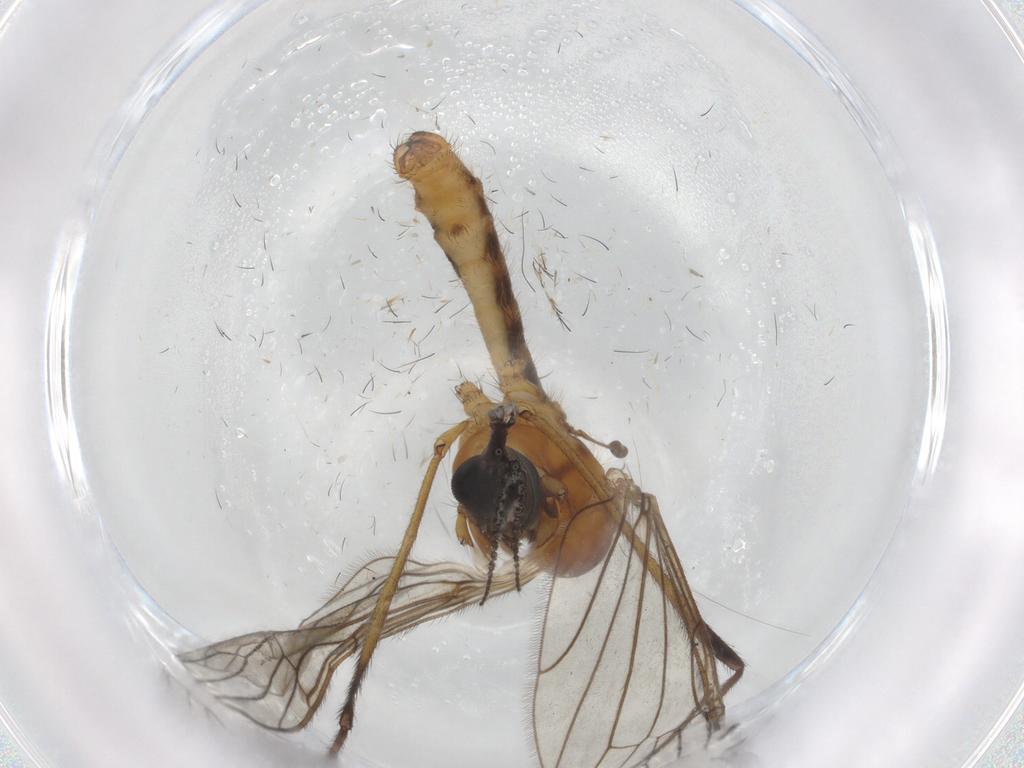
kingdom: Animalia
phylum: Arthropoda
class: Insecta
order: Diptera
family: Limoniidae
